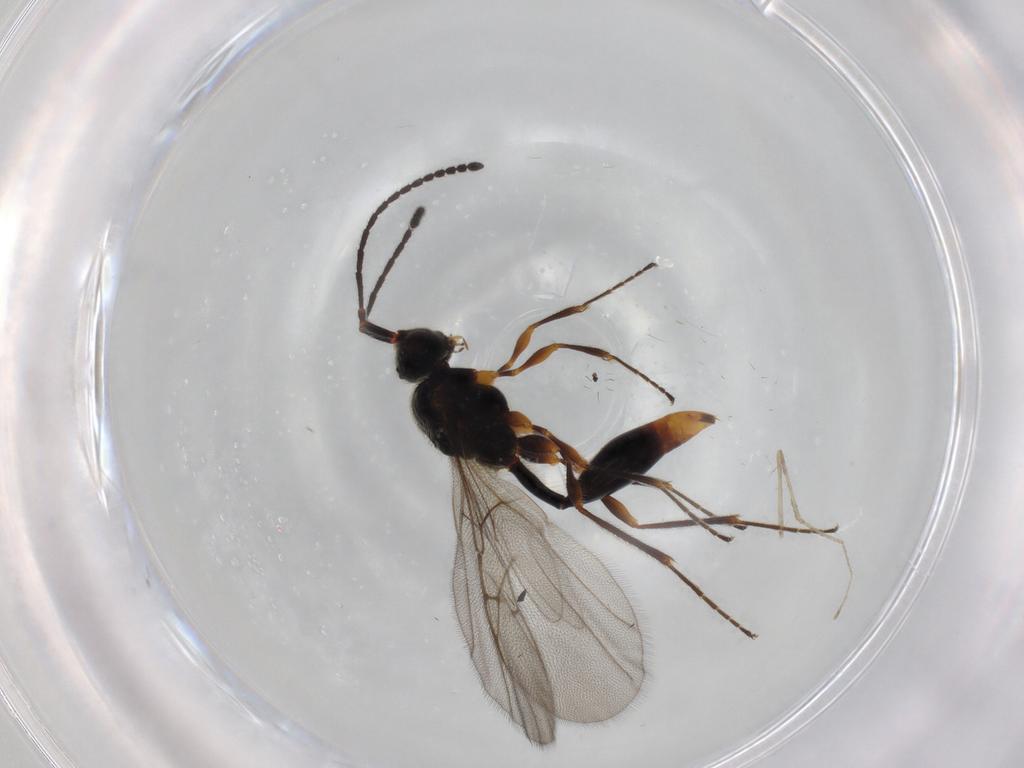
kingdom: Animalia
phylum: Arthropoda
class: Insecta
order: Hymenoptera
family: Diapriidae
